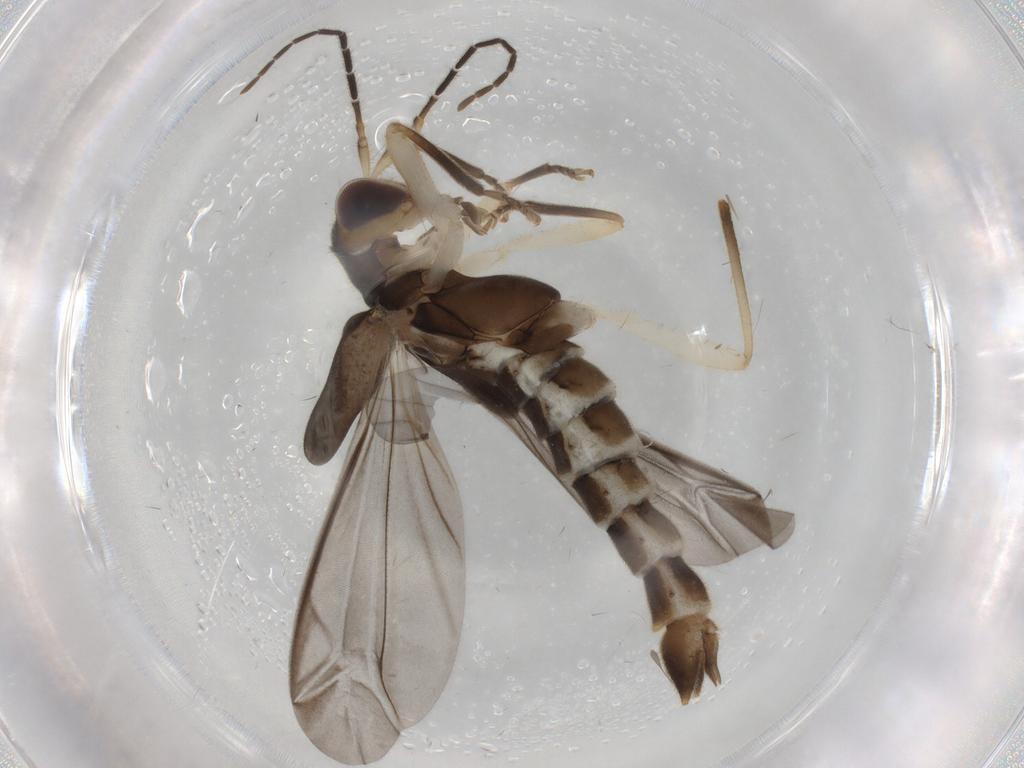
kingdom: Animalia
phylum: Arthropoda
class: Insecta
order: Coleoptera
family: Cantharidae
